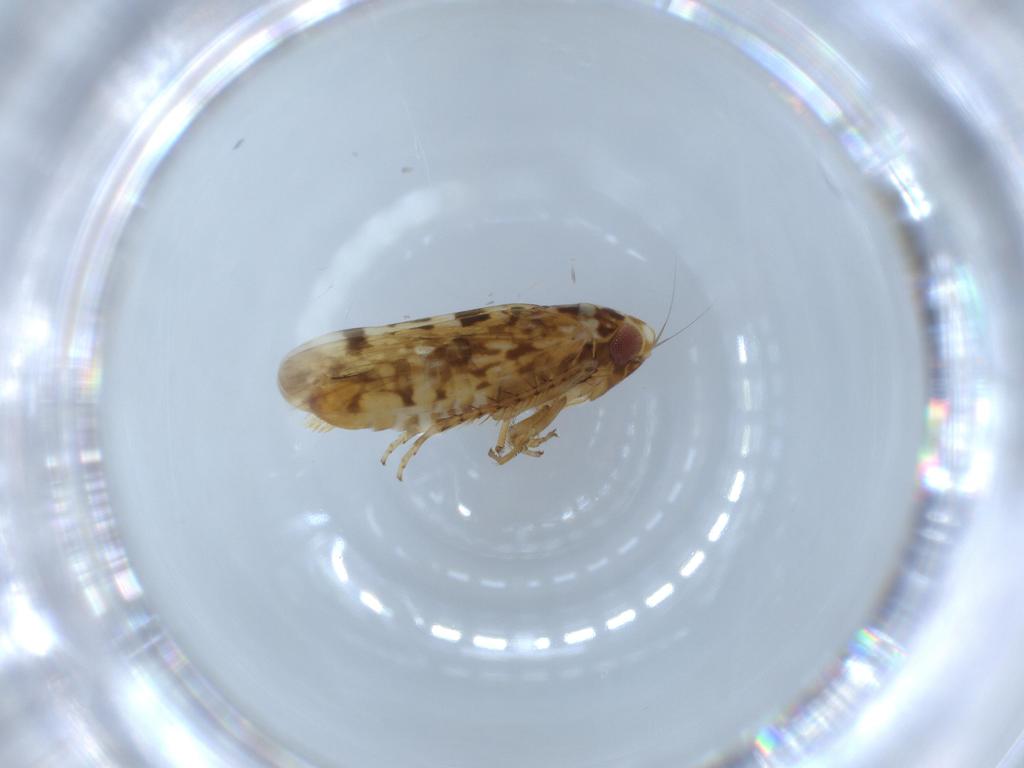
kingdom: Animalia
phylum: Arthropoda
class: Insecta
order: Hemiptera
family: Cicadellidae
